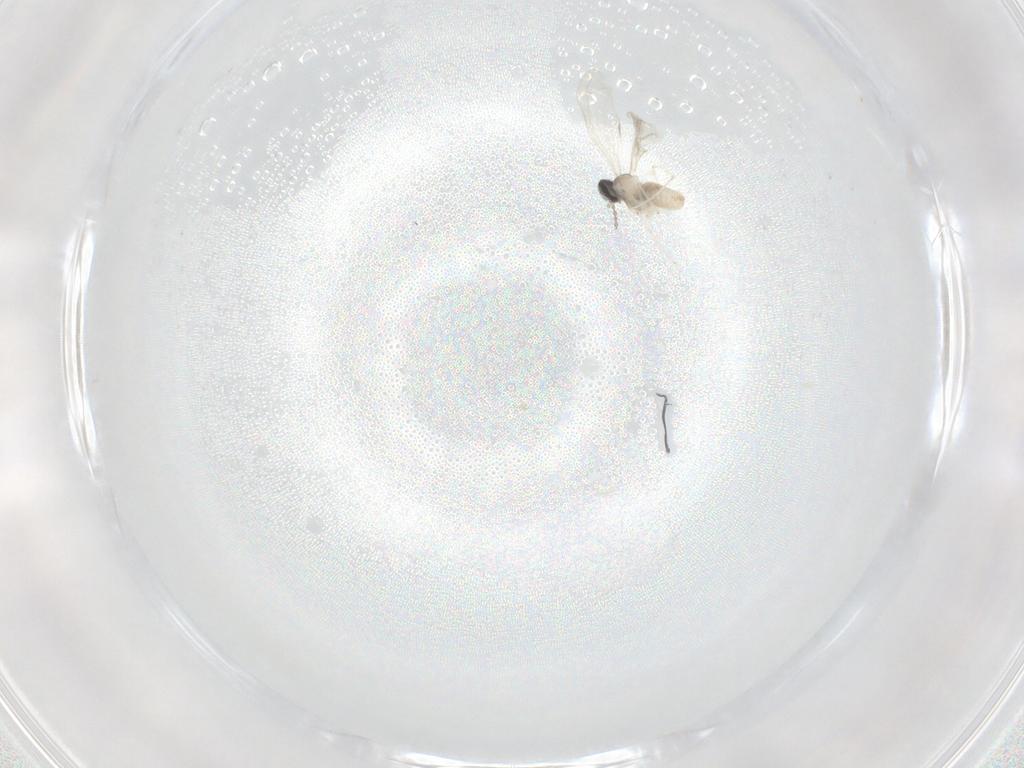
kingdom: Animalia
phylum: Arthropoda
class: Insecta
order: Diptera
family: Cecidomyiidae
